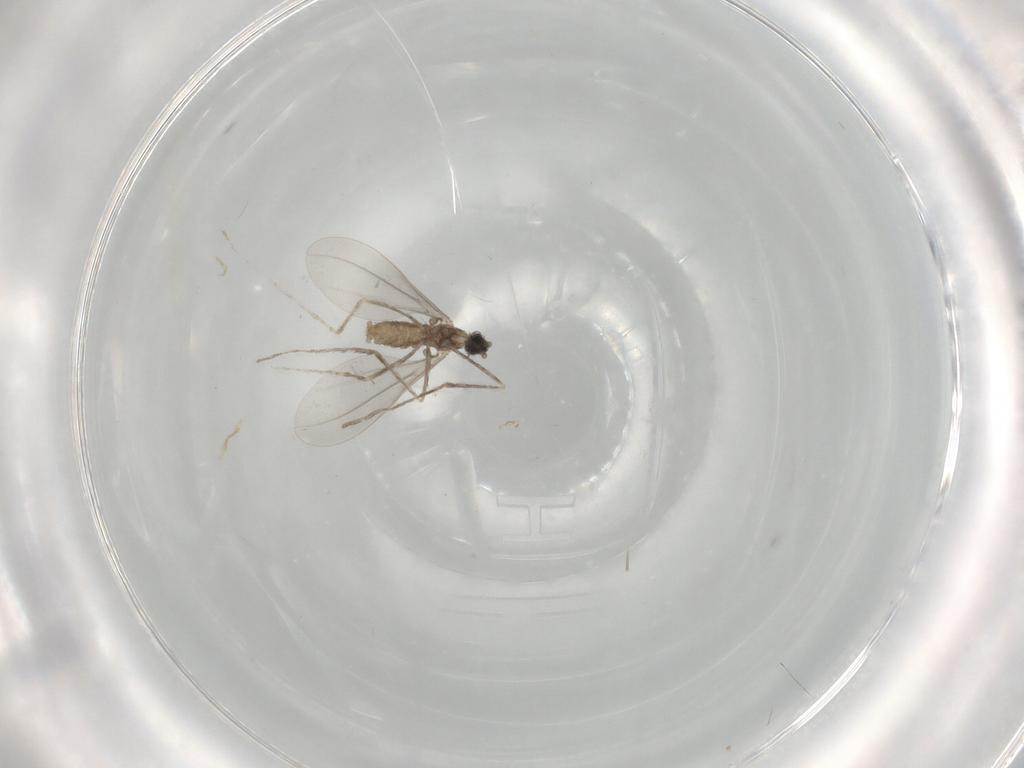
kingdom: Animalia
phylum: Arthropoda
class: Insecta
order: Diptera
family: Cecidomyiidae
